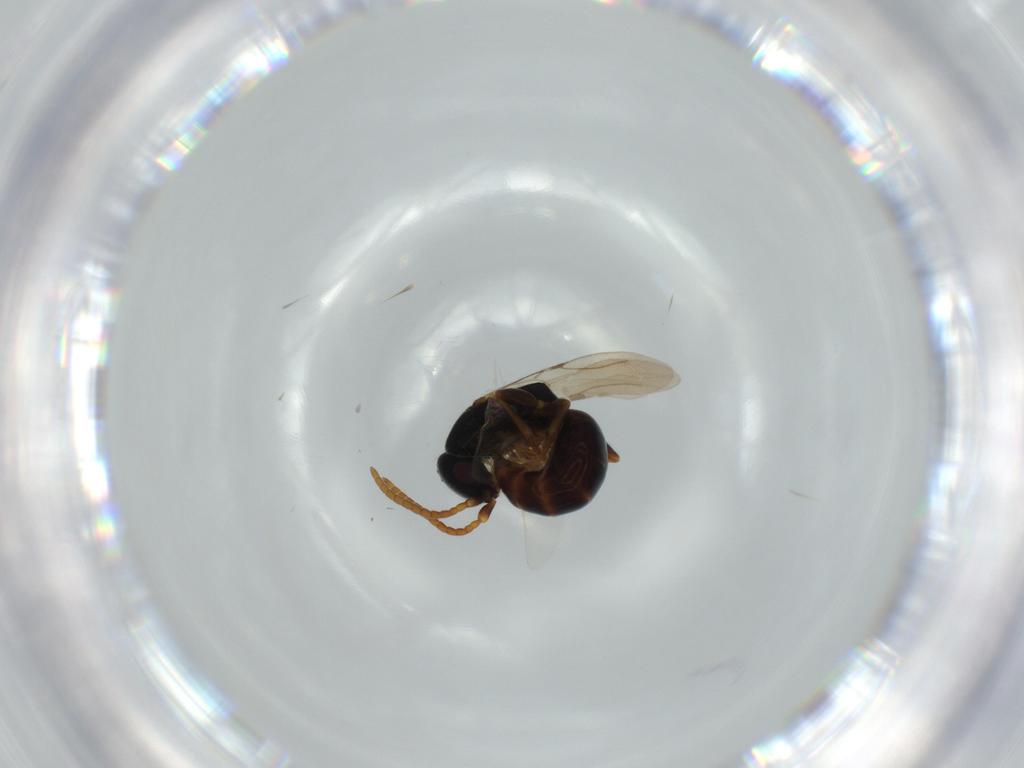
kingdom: Animalia
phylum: Arthropoda
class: Insecta
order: Hymenoptera
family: Bethylidae
